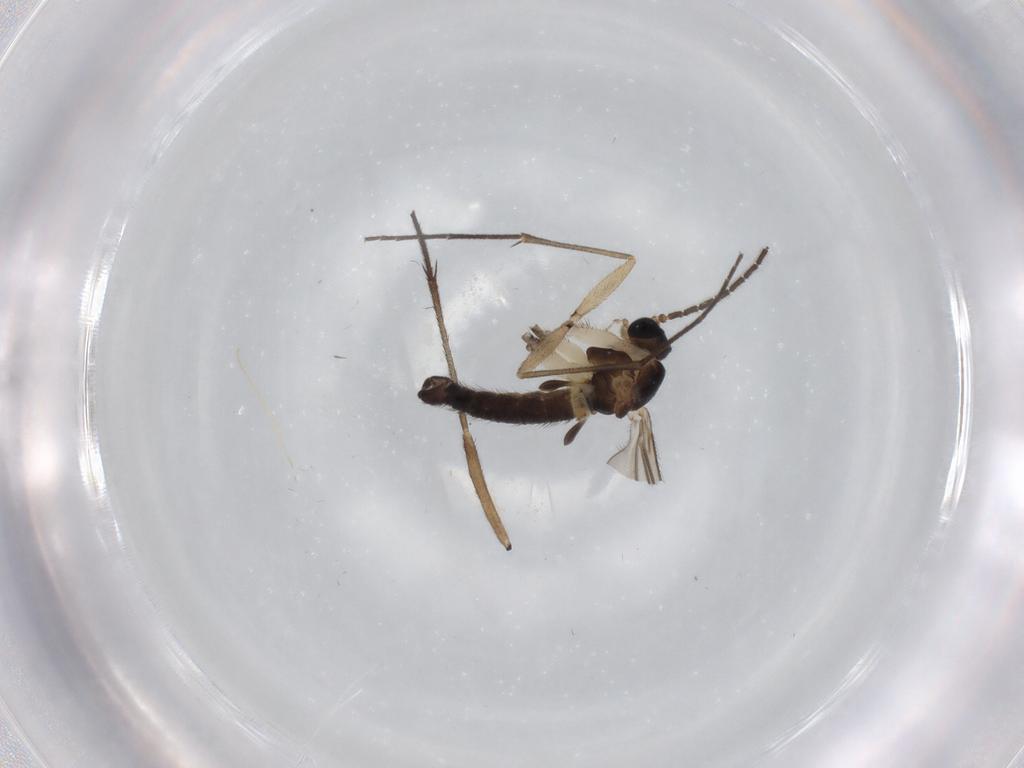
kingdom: Animalia
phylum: Arthropoda
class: Insecta
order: Diptera
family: Sciaridae
